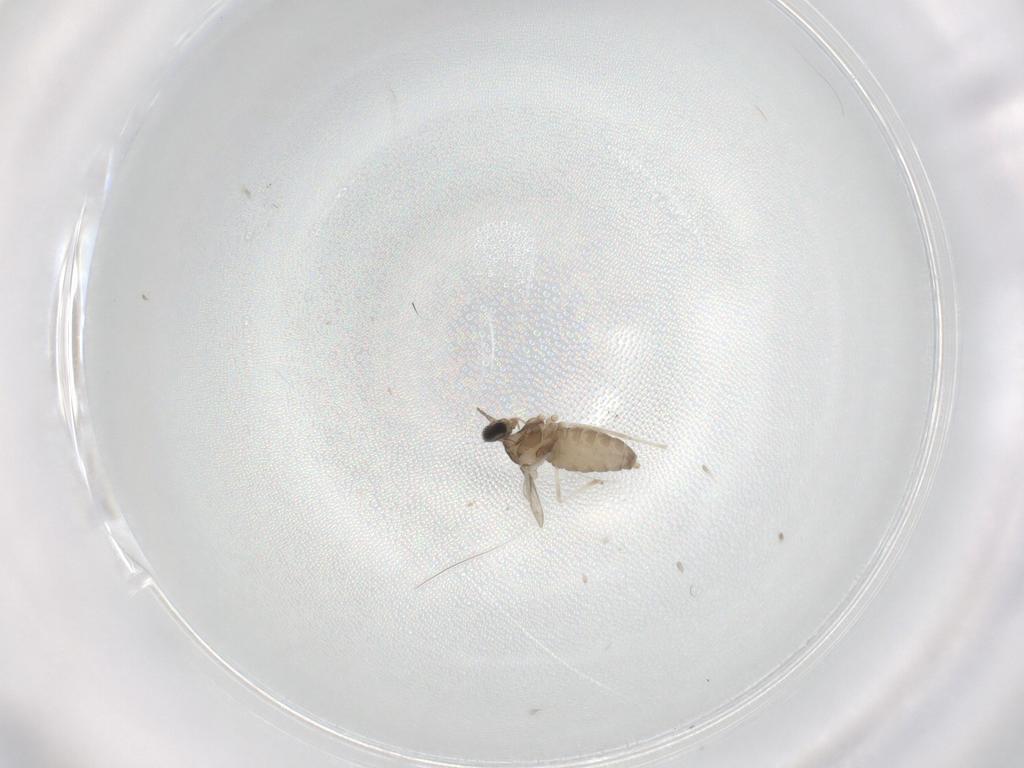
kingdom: Animalia
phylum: Arthropoda
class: Insecta
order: Diptera
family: Cecidomyiidae
